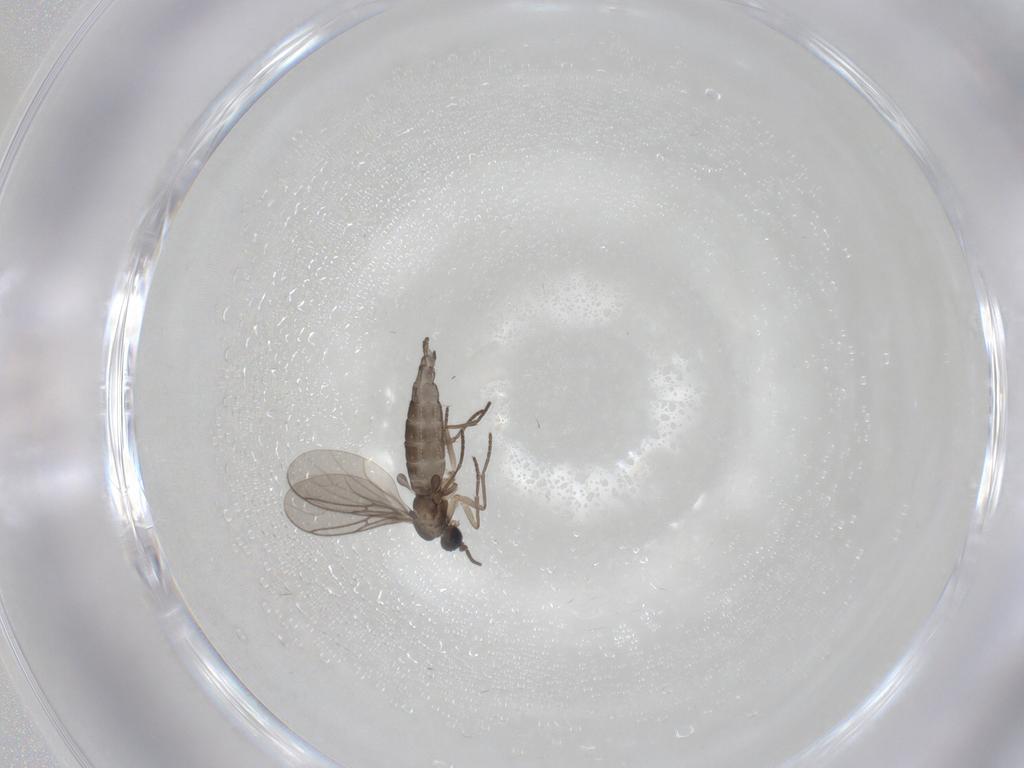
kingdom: Animalia
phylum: Arthropoda
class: Insecta
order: Diptera
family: Sciaridae
